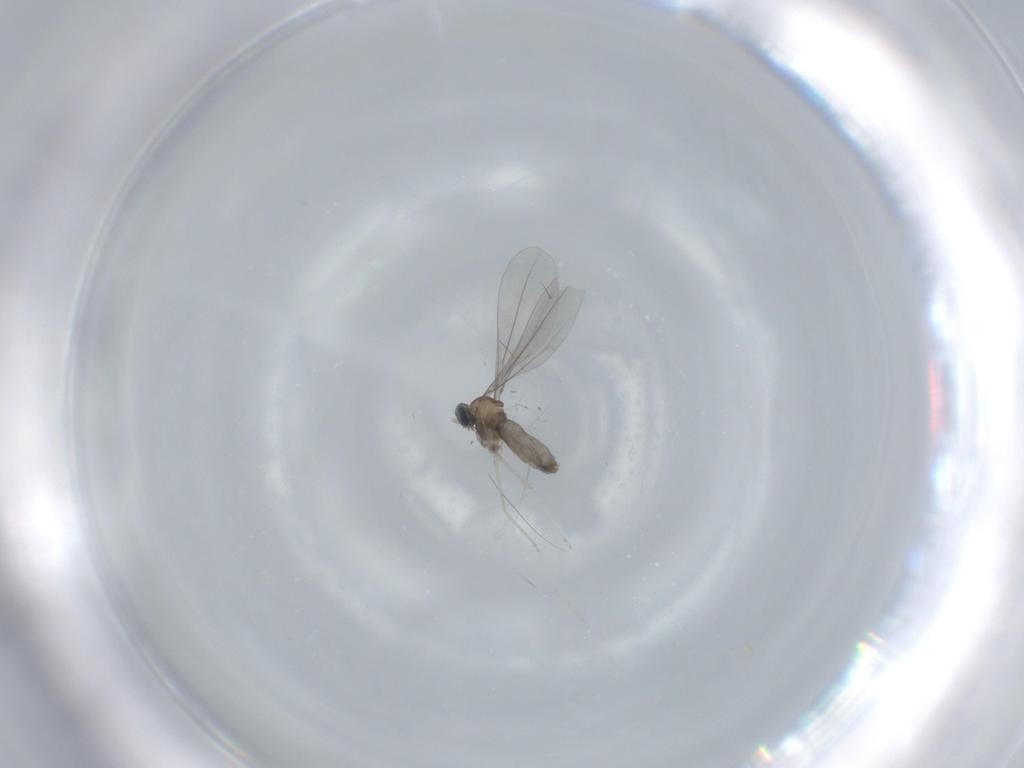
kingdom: Animalia
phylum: Arthropoda
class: Insecta
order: Diptera
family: Cecidomyiidae
